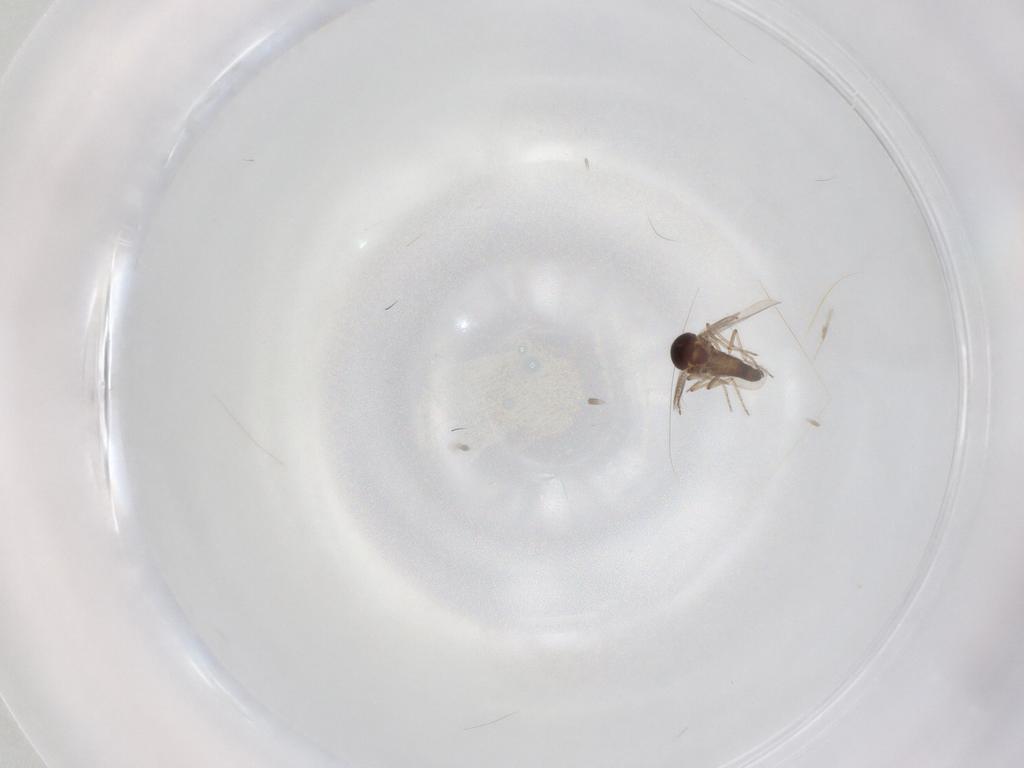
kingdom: Animalia
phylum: Arthropoda
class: Insecta
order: Diptera
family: Ceratopogonidae
